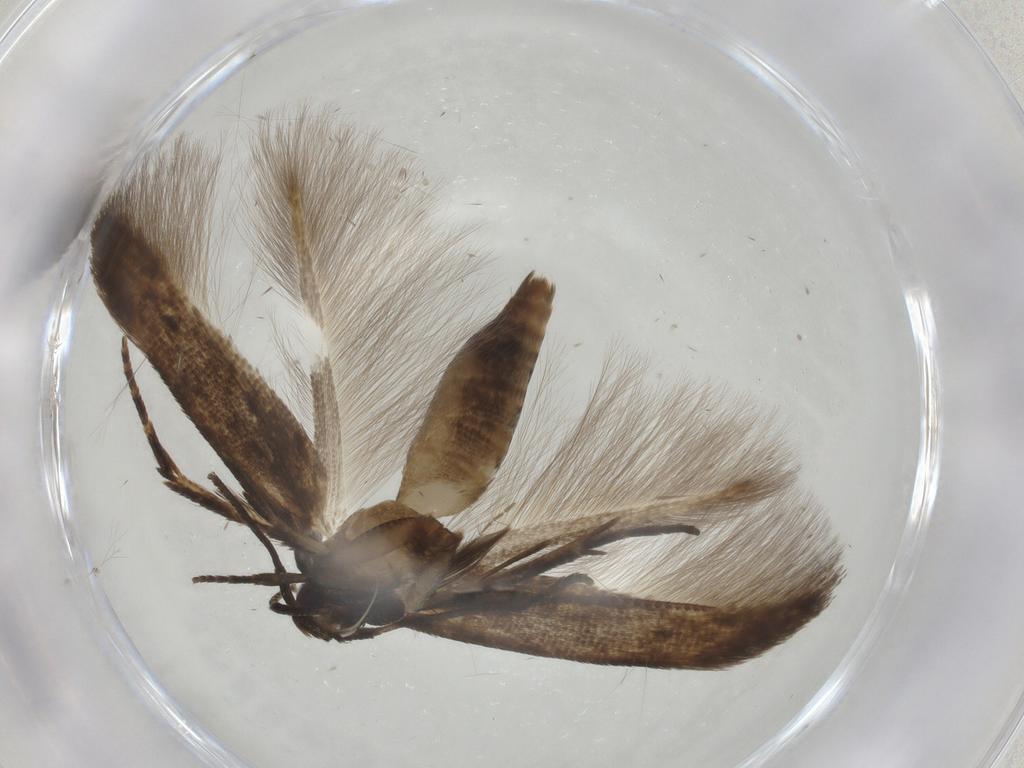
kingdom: Animalia
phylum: Arthropoda
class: Insecta
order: Lepidoptera
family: Cosmopterigidae
